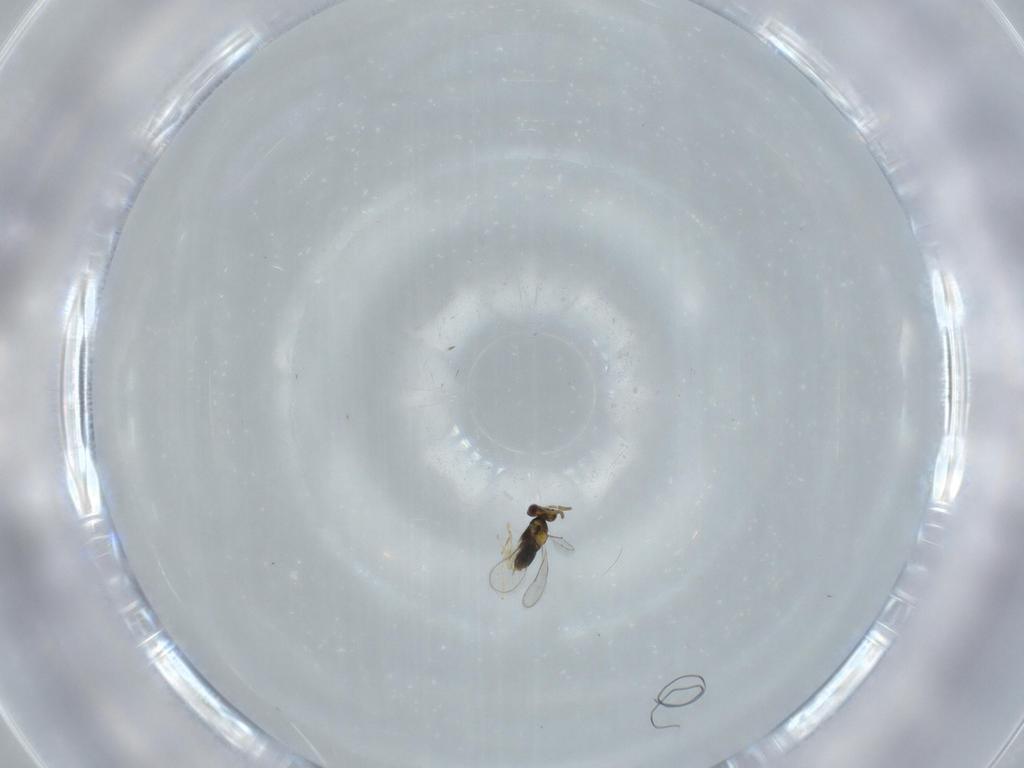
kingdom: Animalia
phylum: Arthropoda
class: Insecta
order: Hymenoptera
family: Aphelinidae
